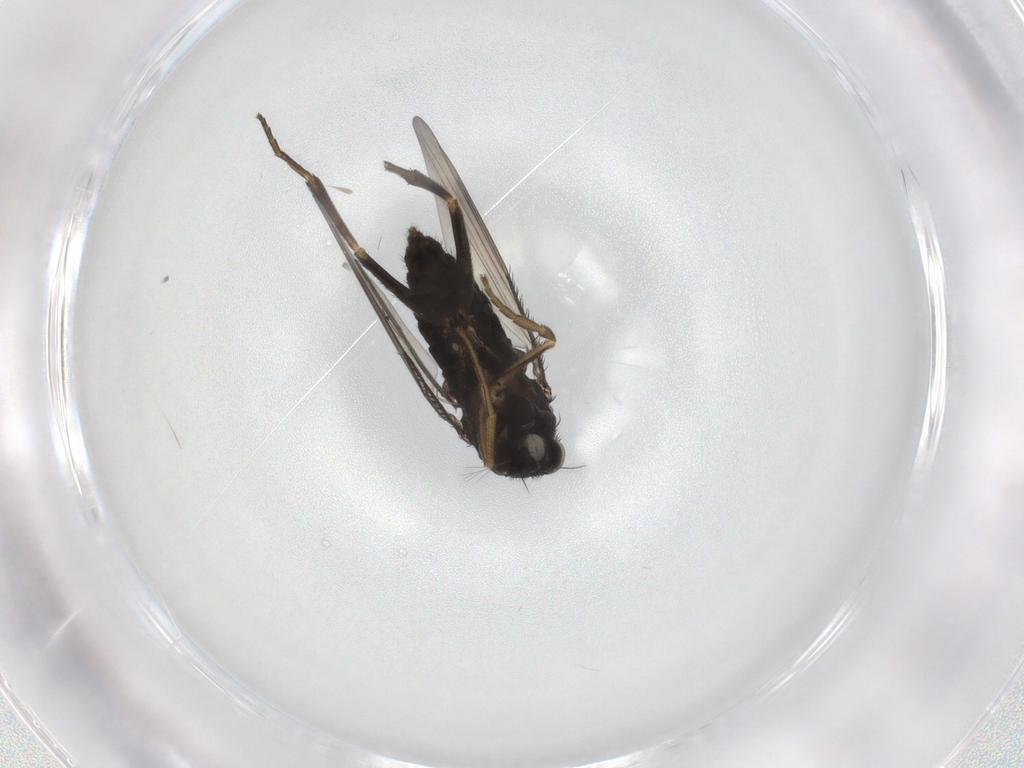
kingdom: Animalia
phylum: Arthropoda
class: Insecta
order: Diptera
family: Phoridae
